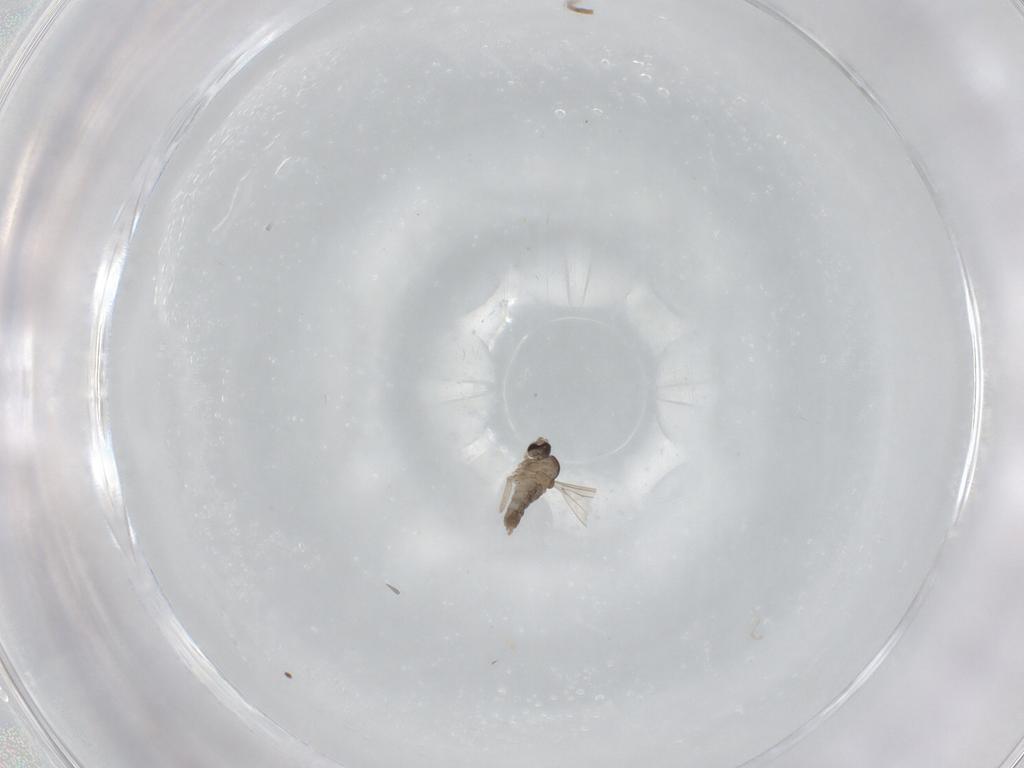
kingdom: Animalia
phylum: Arthropoda
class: Insecta
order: Diptera
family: Cecidomyiidae
